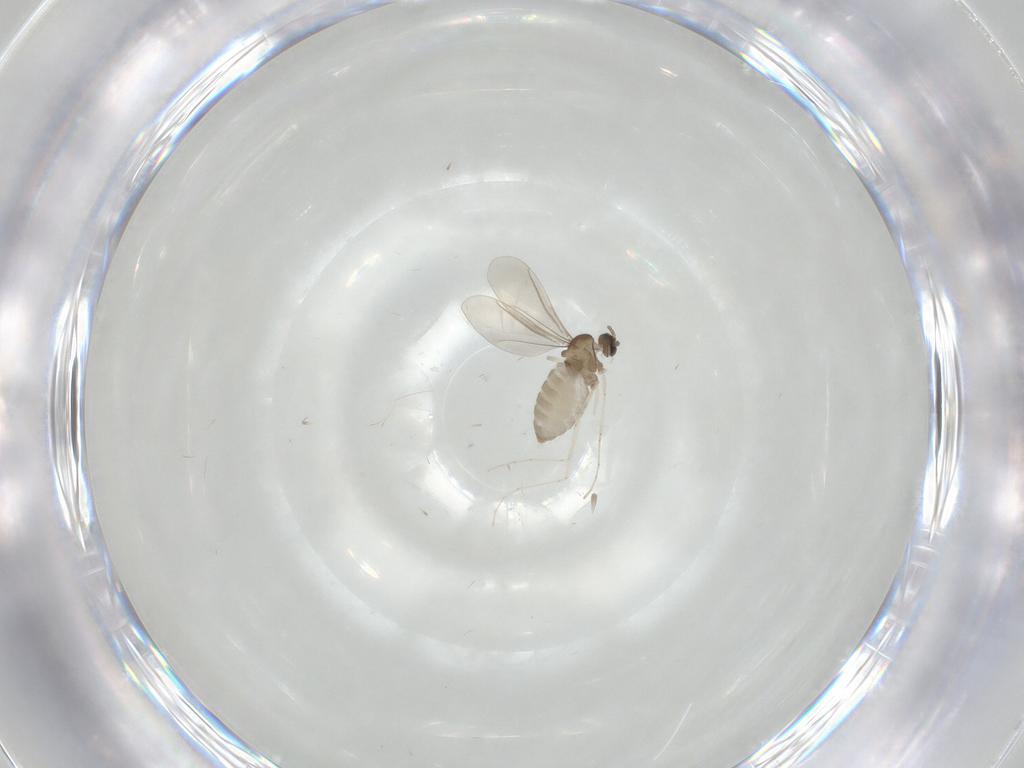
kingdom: Animalia
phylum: Arthropoda
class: Insecta
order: Diptera
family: Cecidomyiidae
